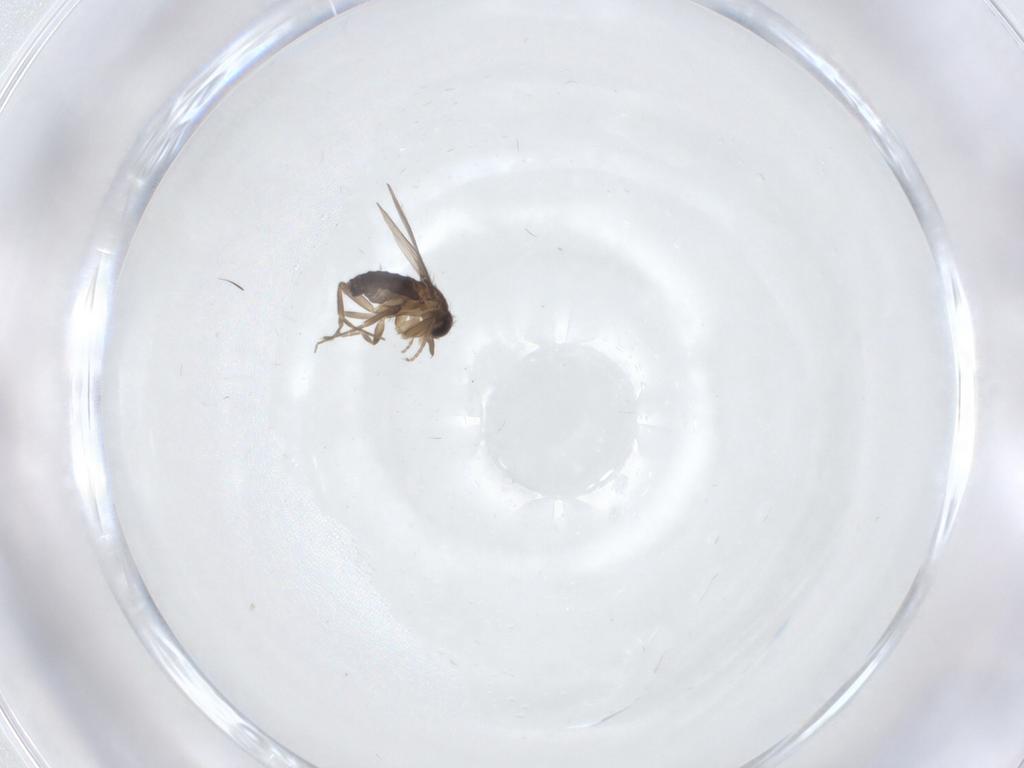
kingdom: Animalia
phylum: Arthropoda
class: Insecta
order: Diptera
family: Phoridae
